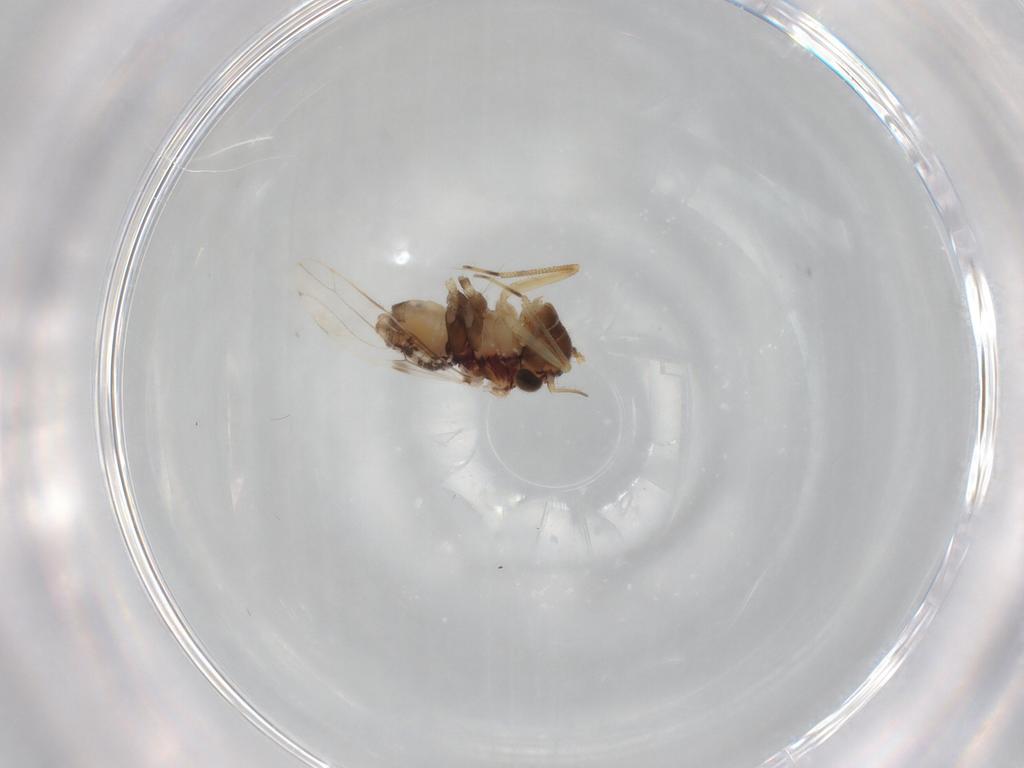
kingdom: Animalia
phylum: Arthropoda
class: Insecta
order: Psocodea
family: Epipsocidae
